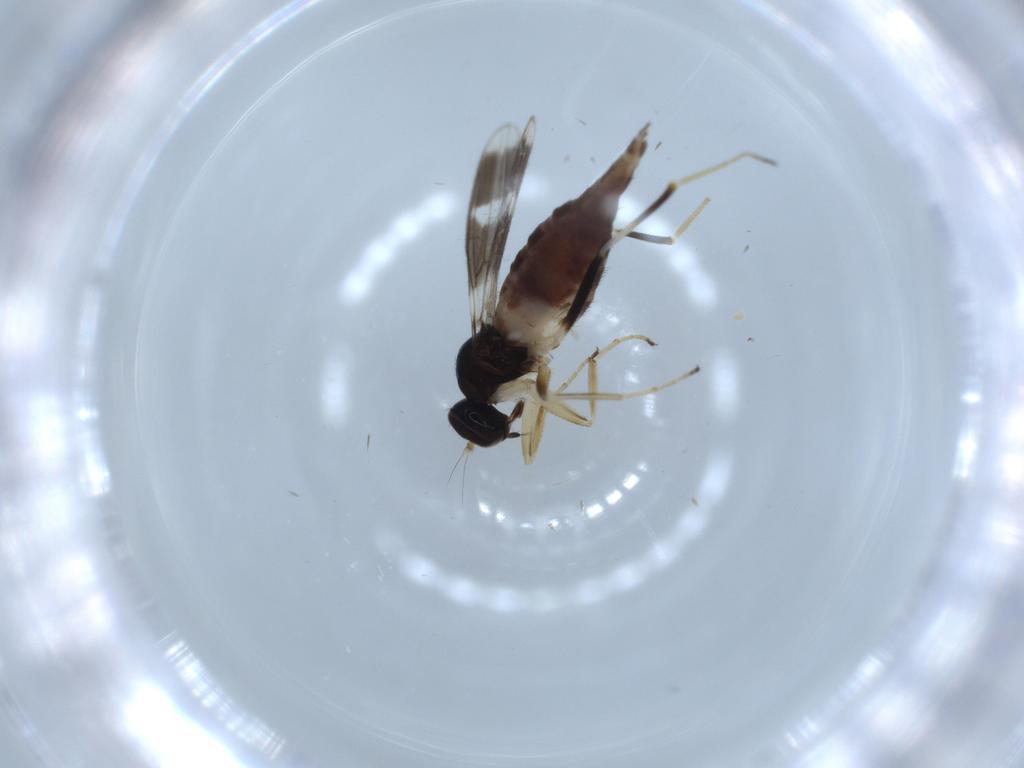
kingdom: Animalia
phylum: Arthropoda
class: Insecta
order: Diptera
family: Hybotidae
